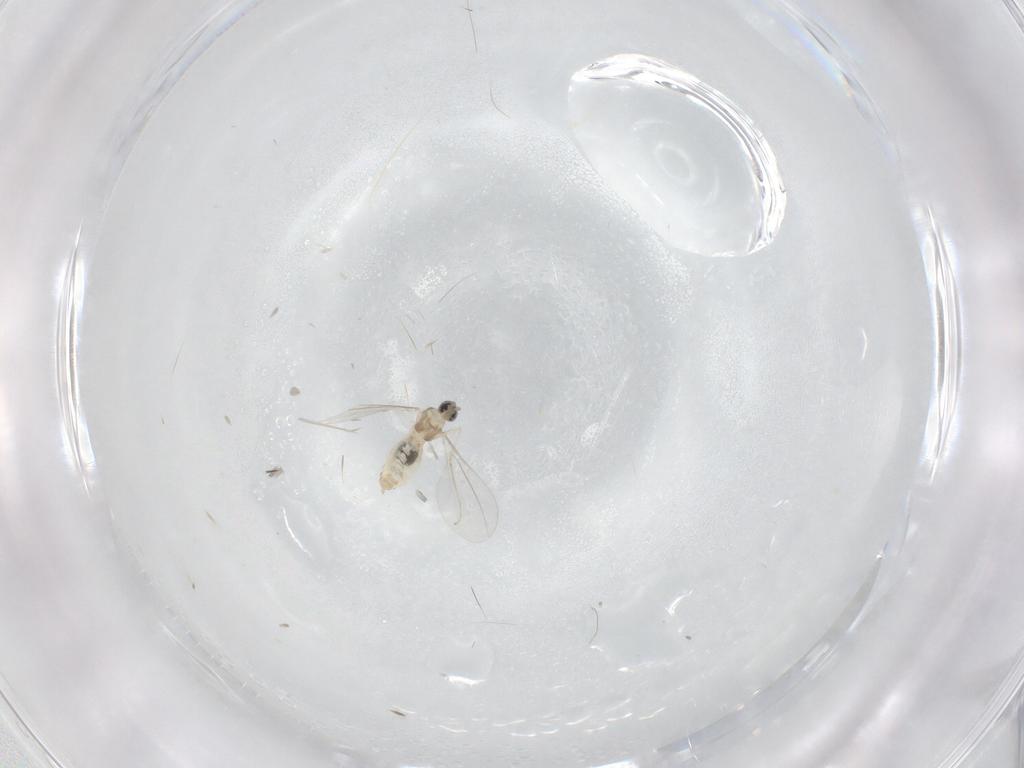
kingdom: Animalia
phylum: Arthropoda
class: Insecta
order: Diptera
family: Cecidomyiidae
